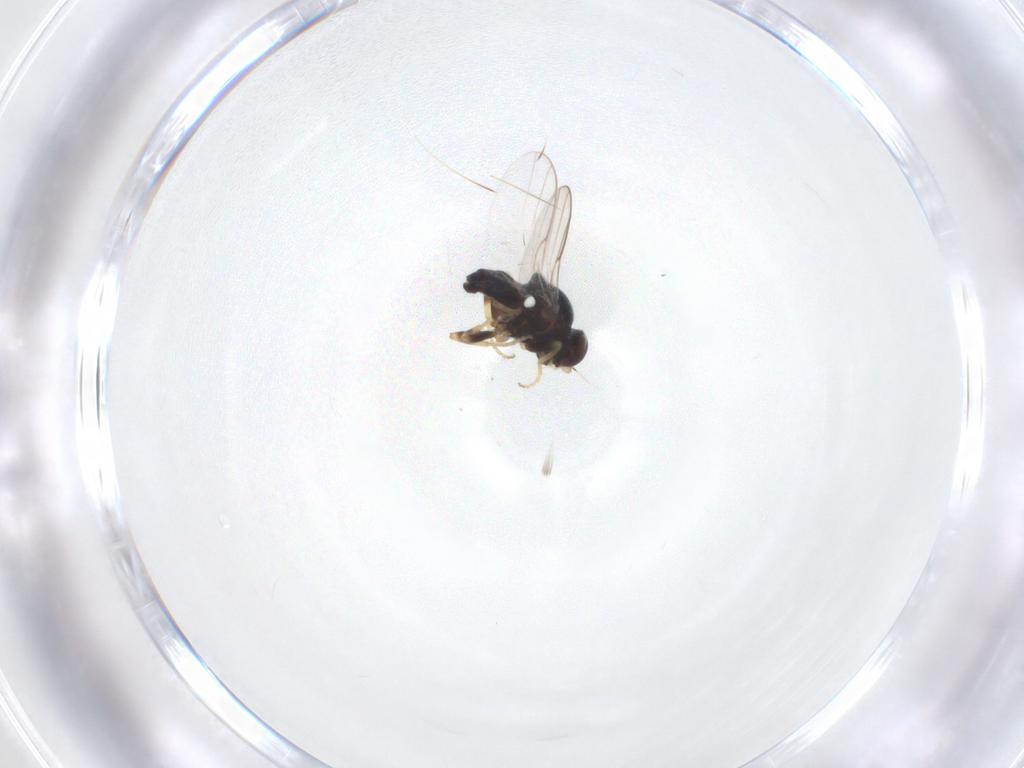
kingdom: Animalia
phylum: Arthropoda
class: Insecta
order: Diptera
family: Chloropidae
